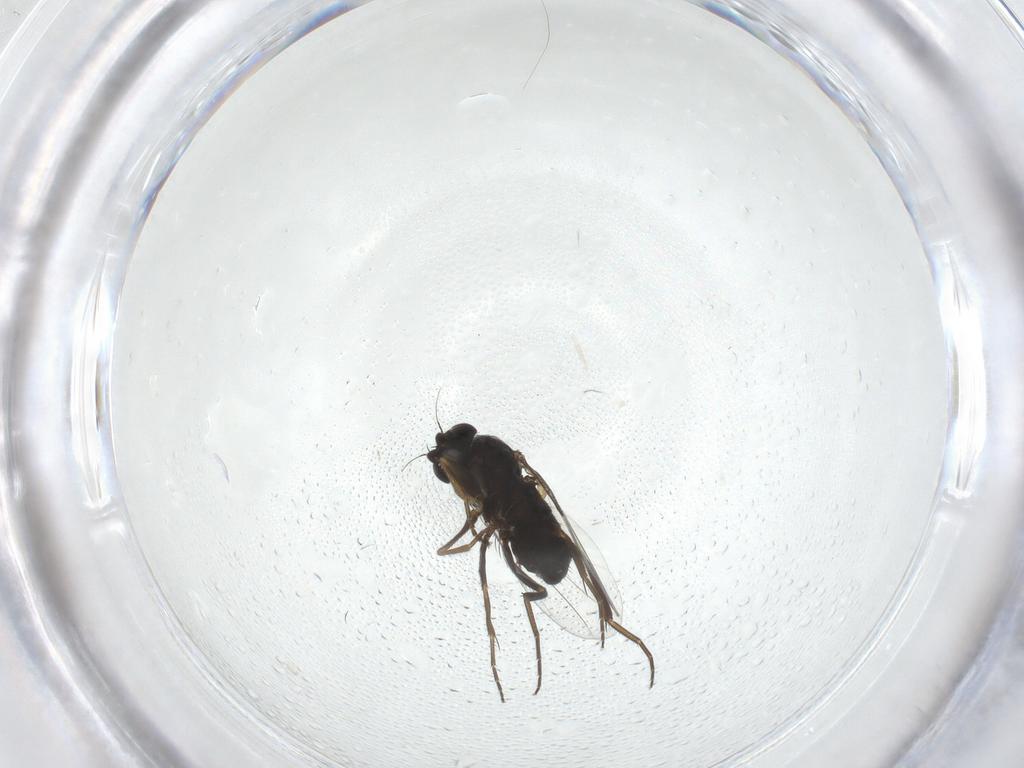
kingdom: Animalia
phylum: Arthropoda
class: Insecta
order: Diptera
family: Phoridae
